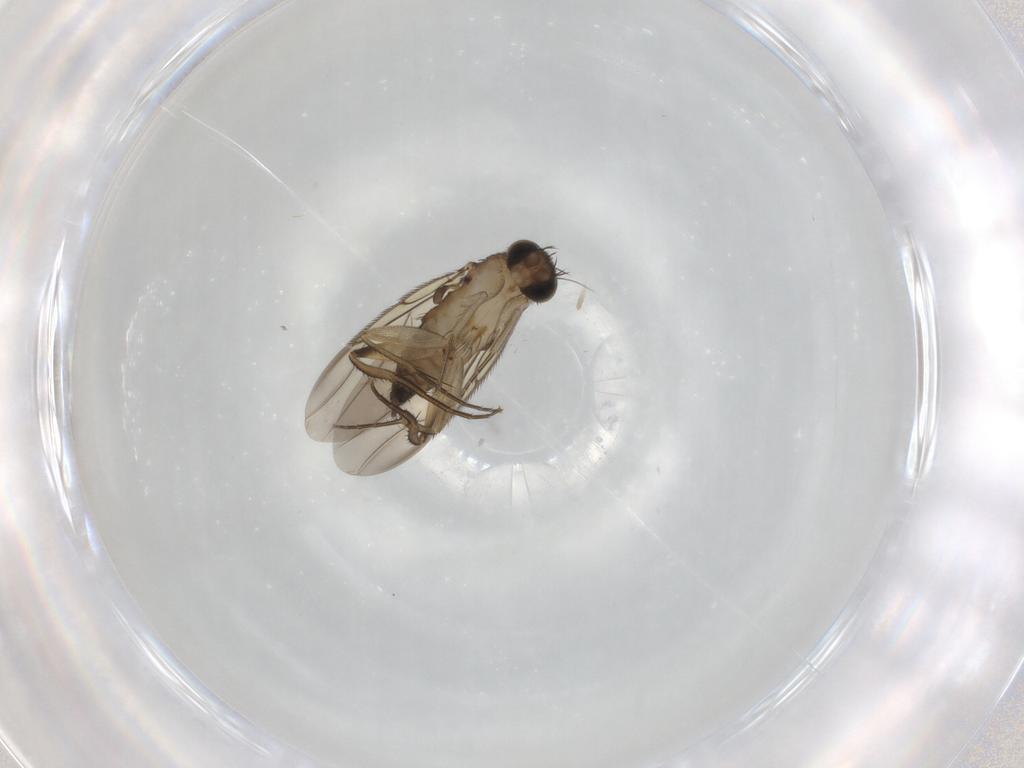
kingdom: Animalia
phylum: Arthropoda
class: Insecta
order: Diptera
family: Phoridae
